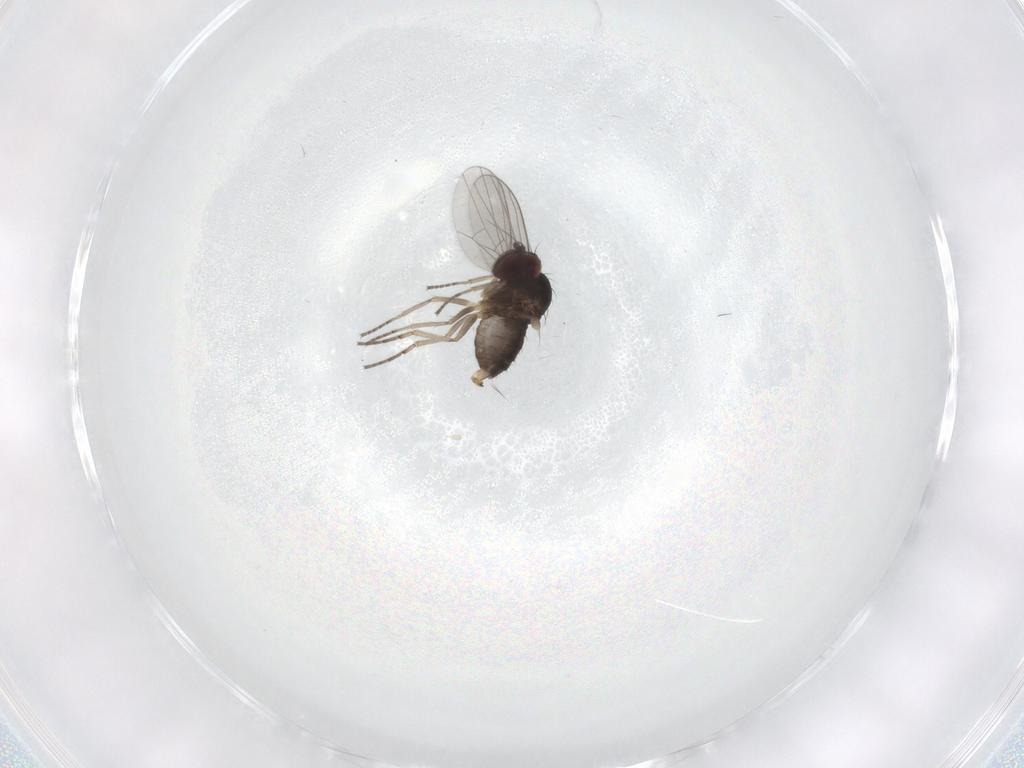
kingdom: Animalia
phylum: Arthropoda
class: Insecta
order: Diptera
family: Dolichopodidae
